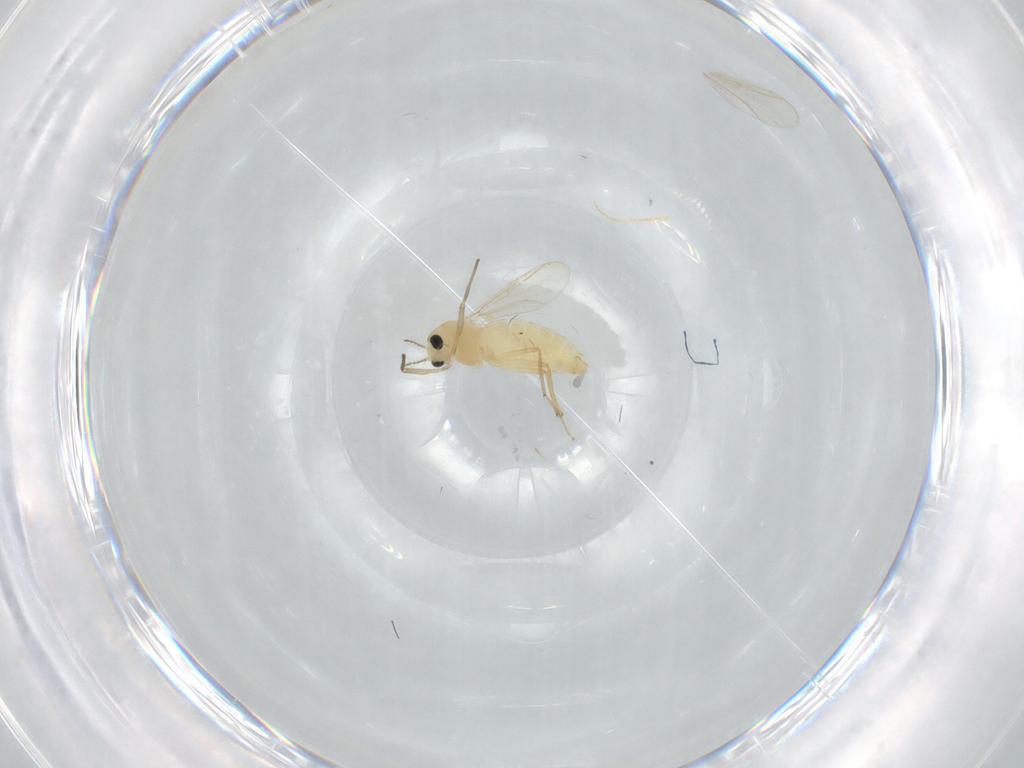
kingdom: Animalia
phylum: Arthropoda
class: Insecta
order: Diptera
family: Chironomidae
